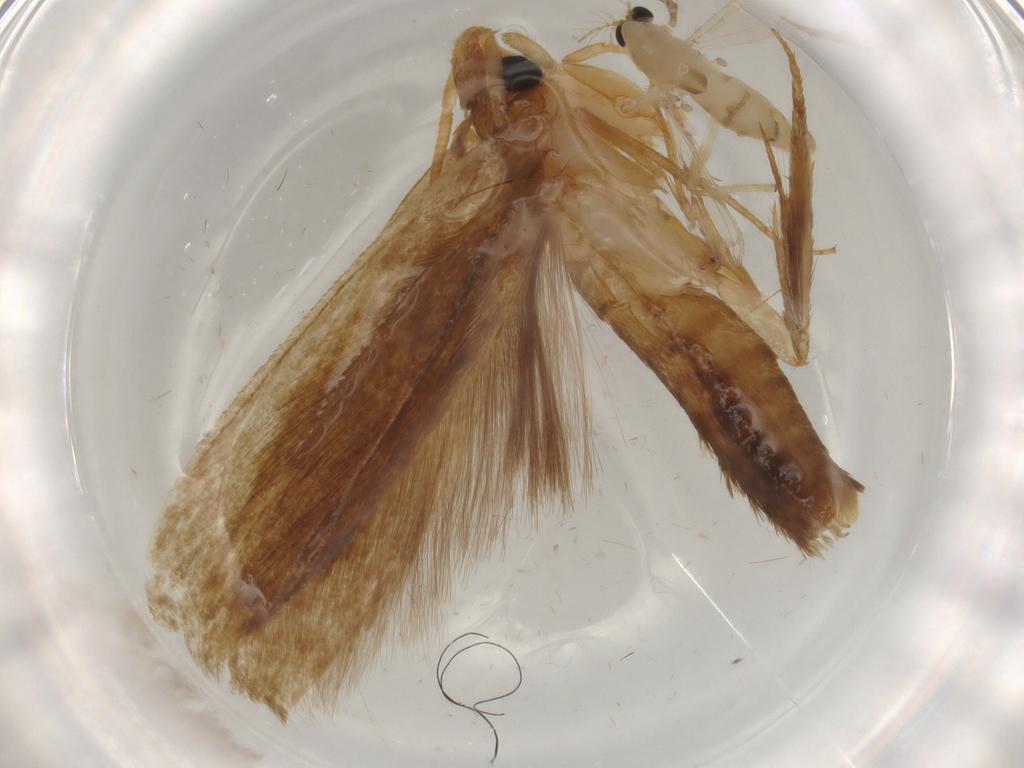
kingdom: Animalia
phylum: Arthropoda
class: Insecta
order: Diptera
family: Chironomidae
